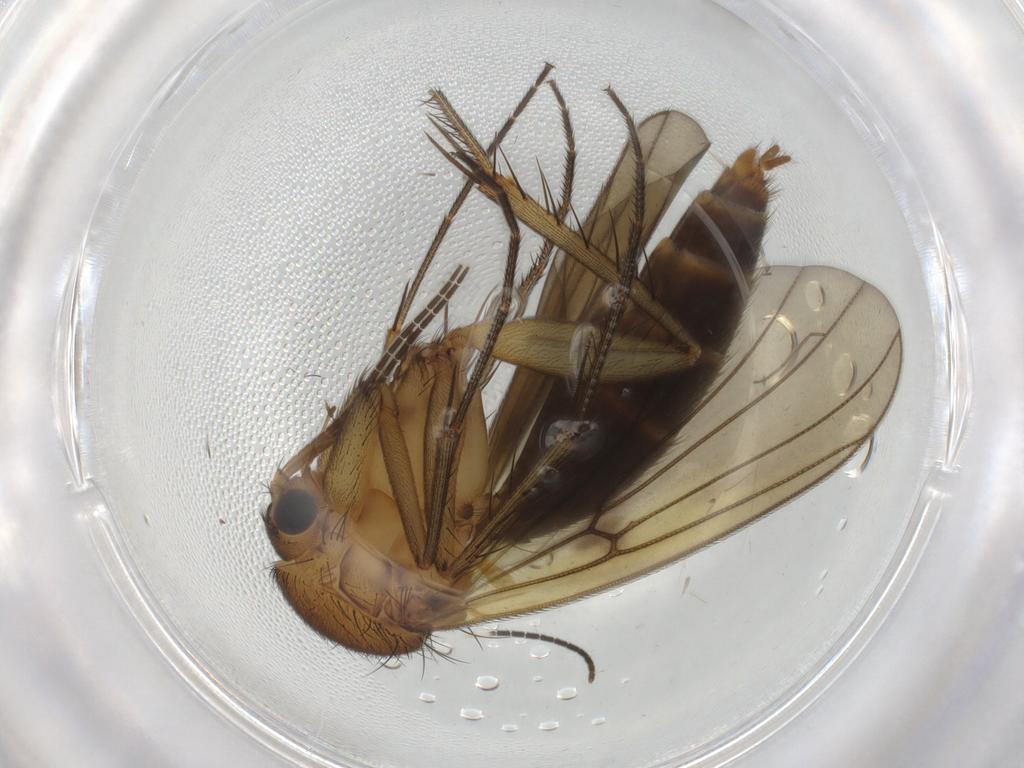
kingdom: Animalia
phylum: Arthropoda
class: Insecta
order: Diptera
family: Mycetophilidae
